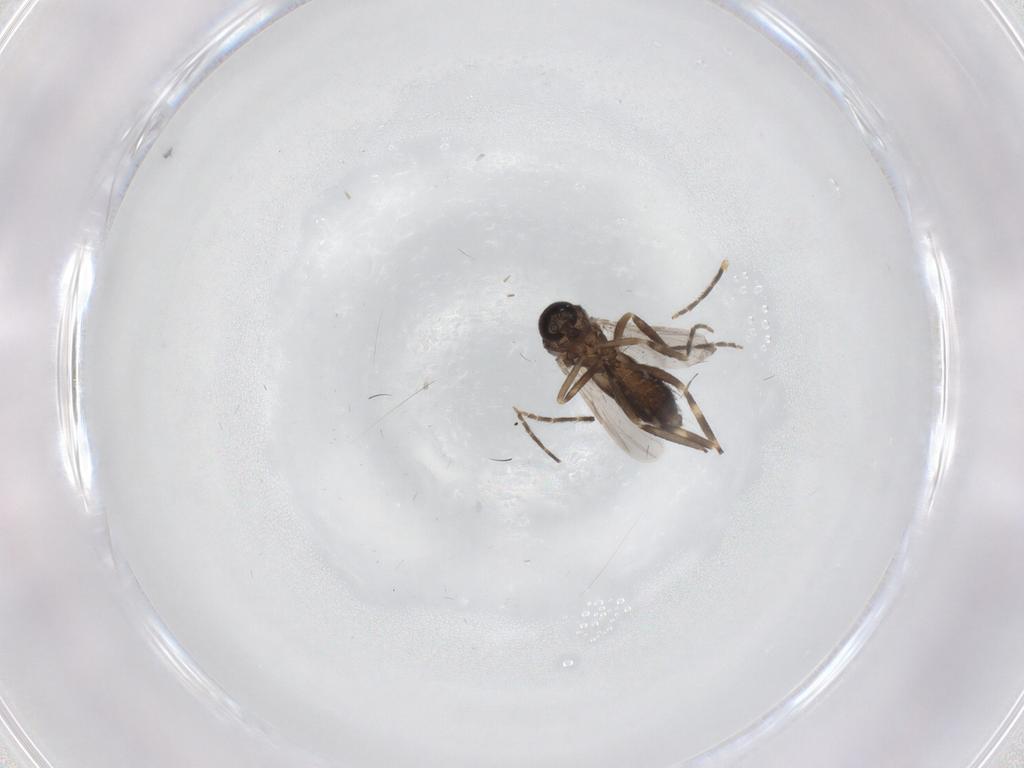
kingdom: Animalia
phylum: Arthropoda
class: Insecta
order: Diptera
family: Ceratopogonidae
